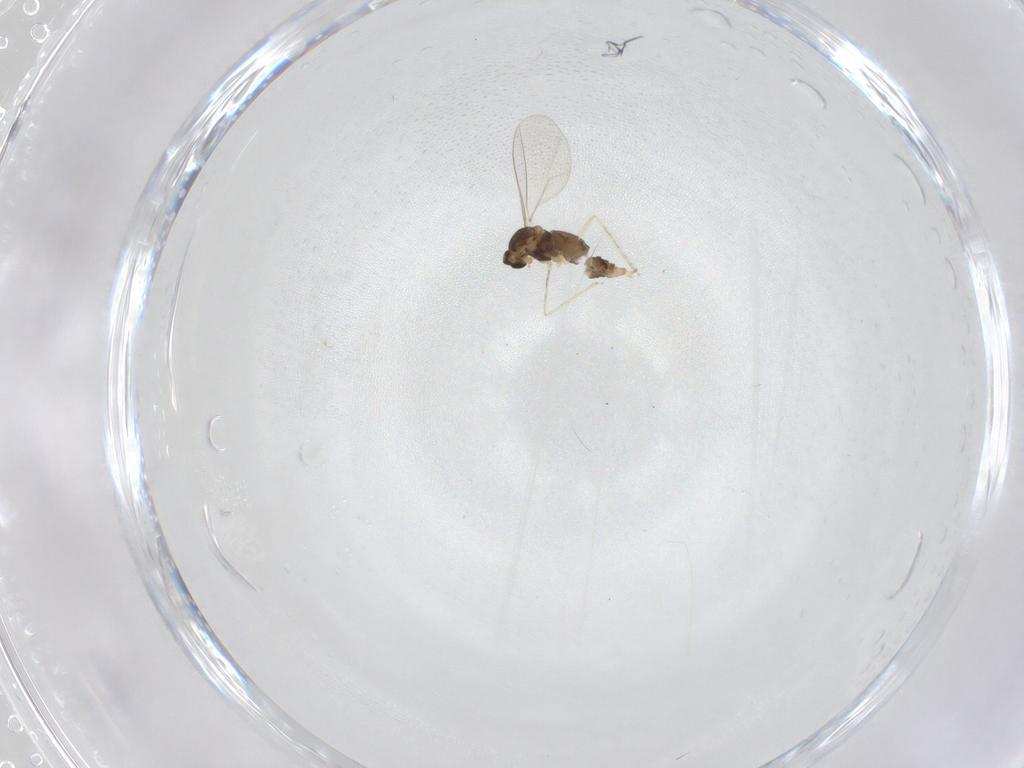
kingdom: Animalia
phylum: Arthropoda
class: Insecta
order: Diptera
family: Cecidomyiidae
